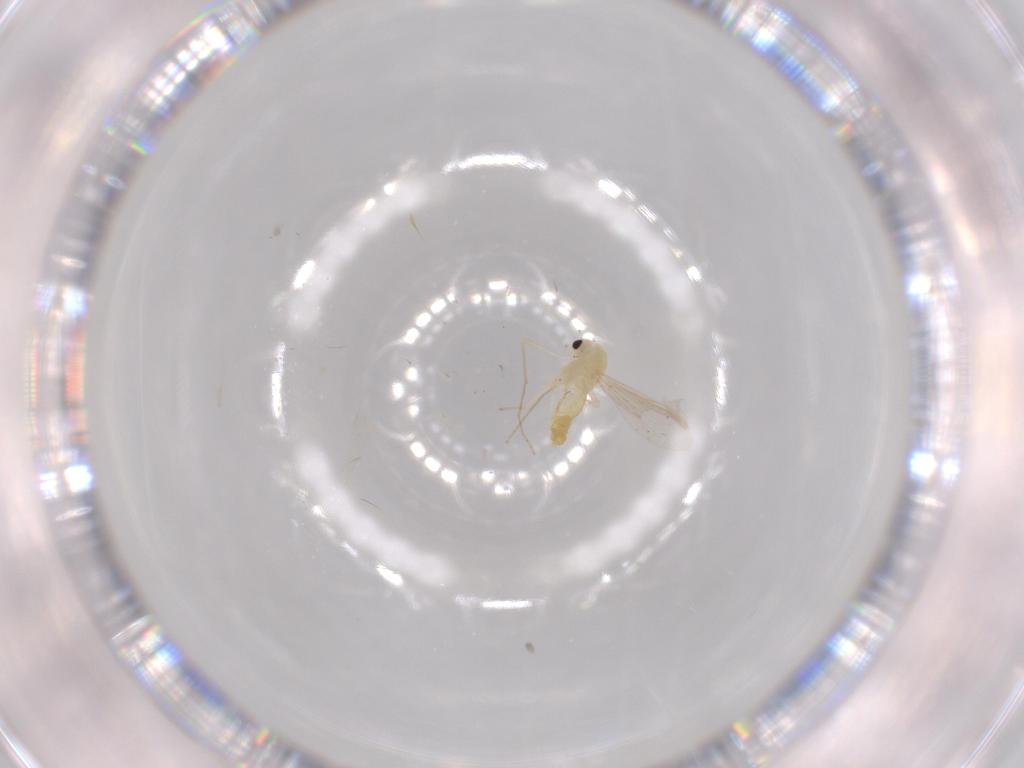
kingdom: Animalia
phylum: Arthropoda
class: Insecta
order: Diptera
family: Chironomidae
